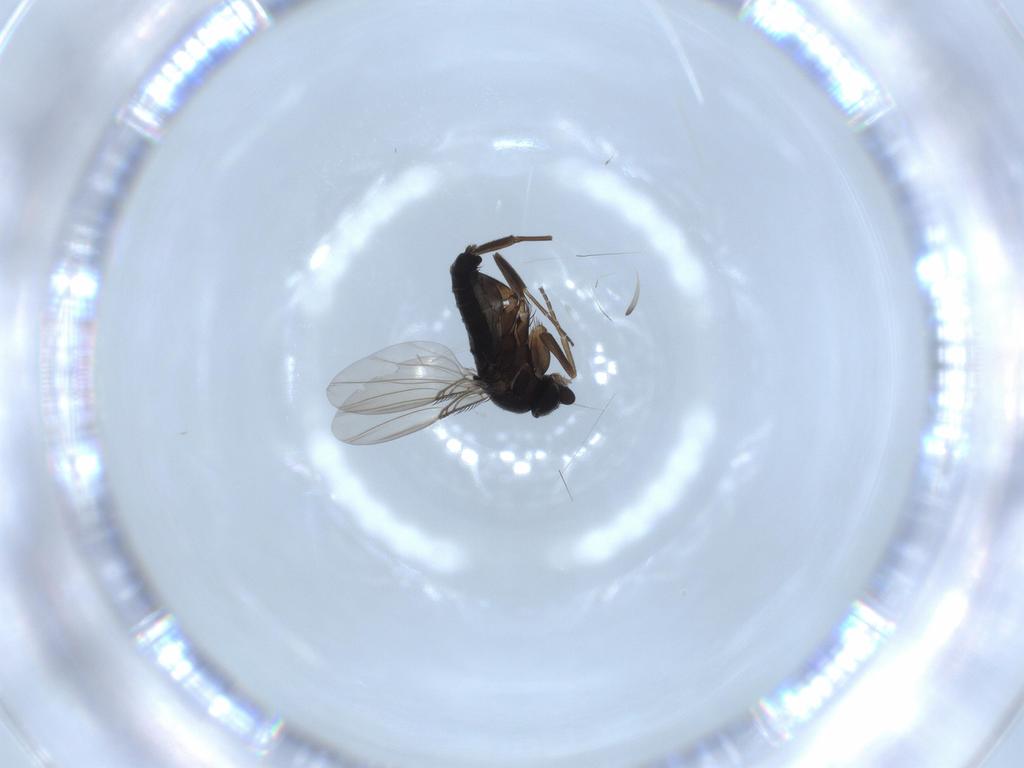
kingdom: Animalia
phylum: Arthropoda
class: Insecta
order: Diptera
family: Phoridae
